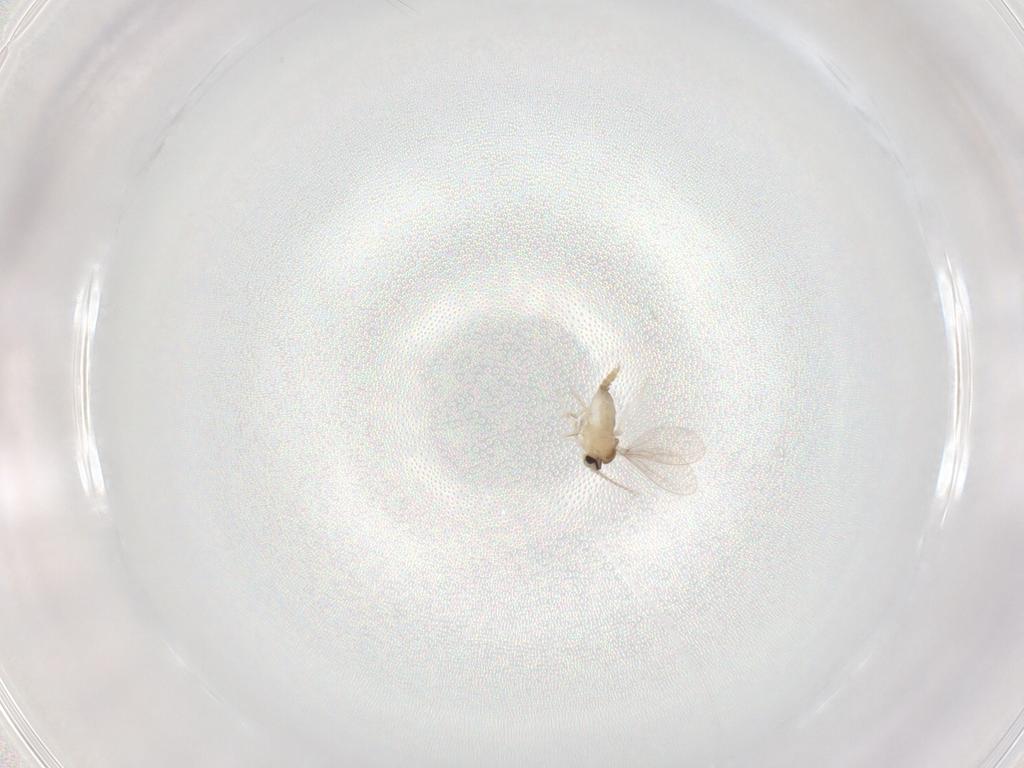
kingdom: Animalia
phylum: Arthropoda
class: Insecta
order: Diptera
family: Cecidomyiidae
